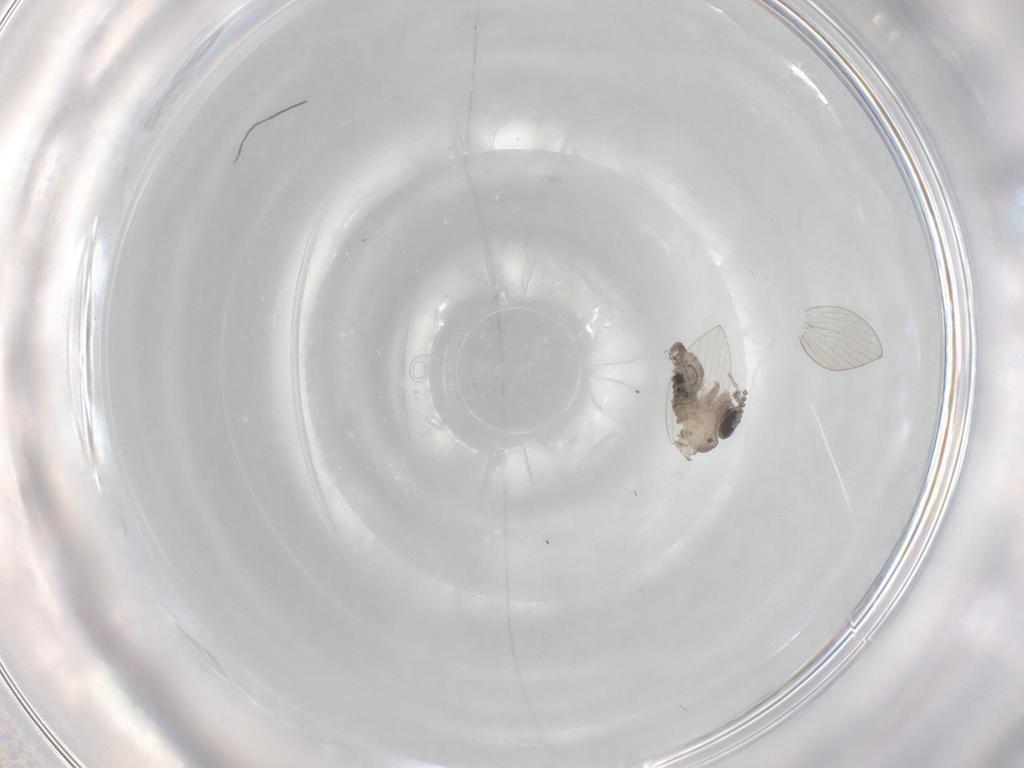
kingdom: Animalia
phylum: Arthropoda
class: Insecta
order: Diptera
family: Chironomidae
